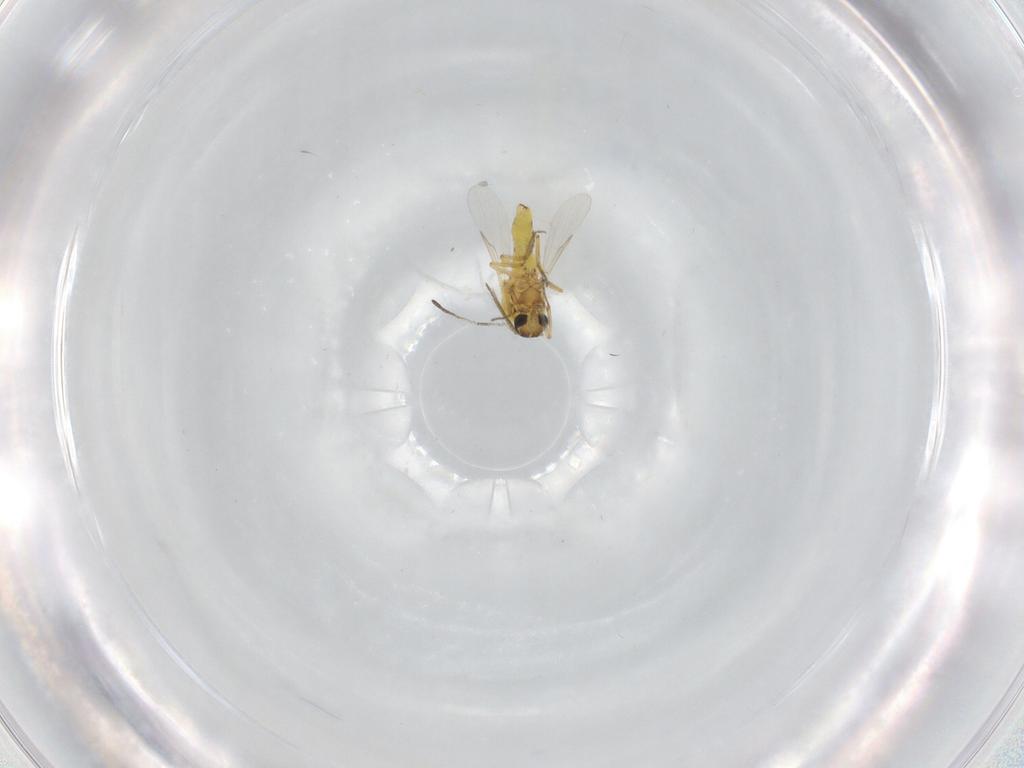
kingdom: Animalia
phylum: Arthropoda
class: Insecta
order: Diptera
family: Ceratopogonidae
